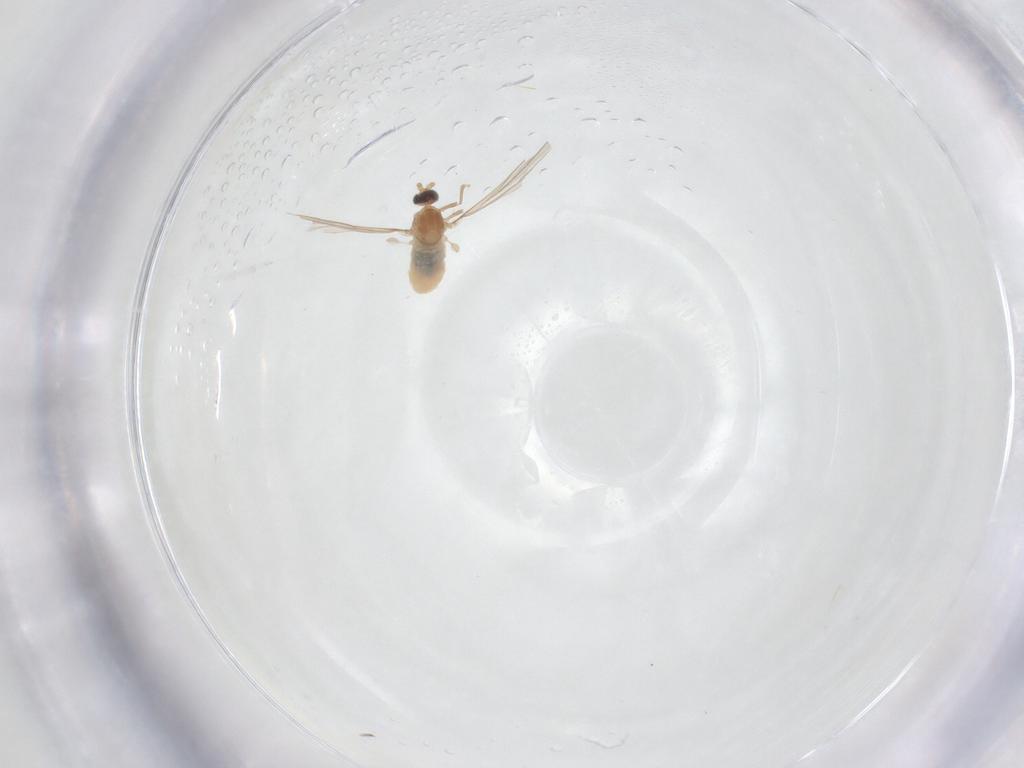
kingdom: Animalia
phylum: Arthropoda
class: Insecta
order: Diptera
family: Cecidomyiidae
